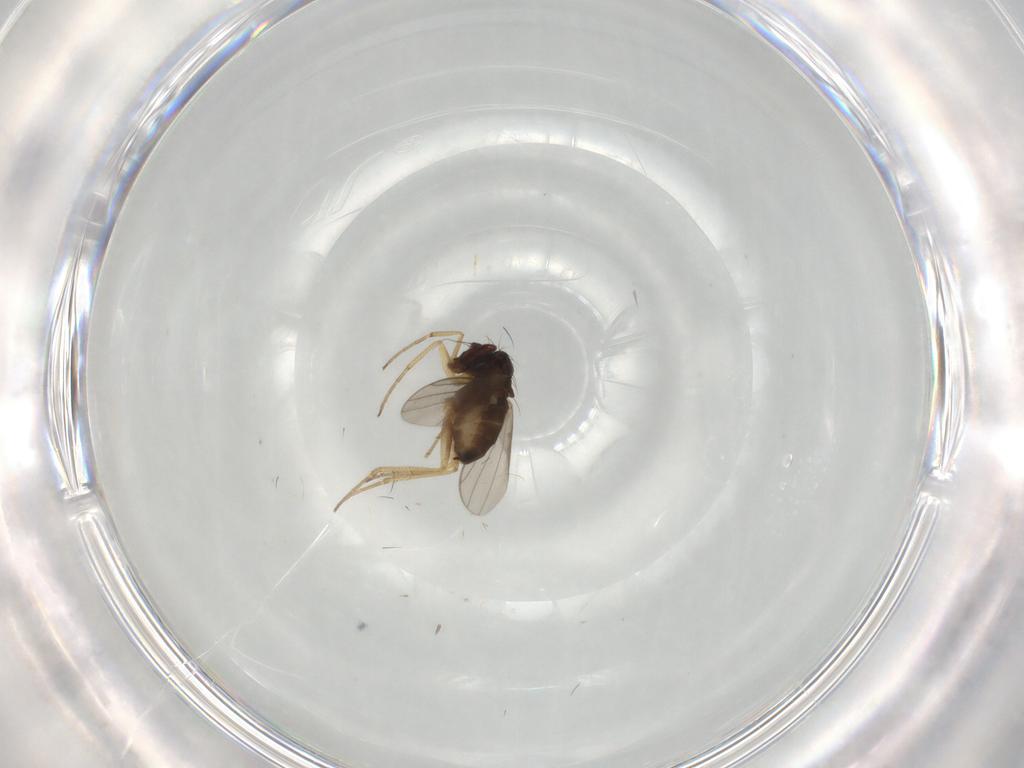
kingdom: Animalia
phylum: Arthropoda
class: Insecta
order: Diptera
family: Dolichopodidae
